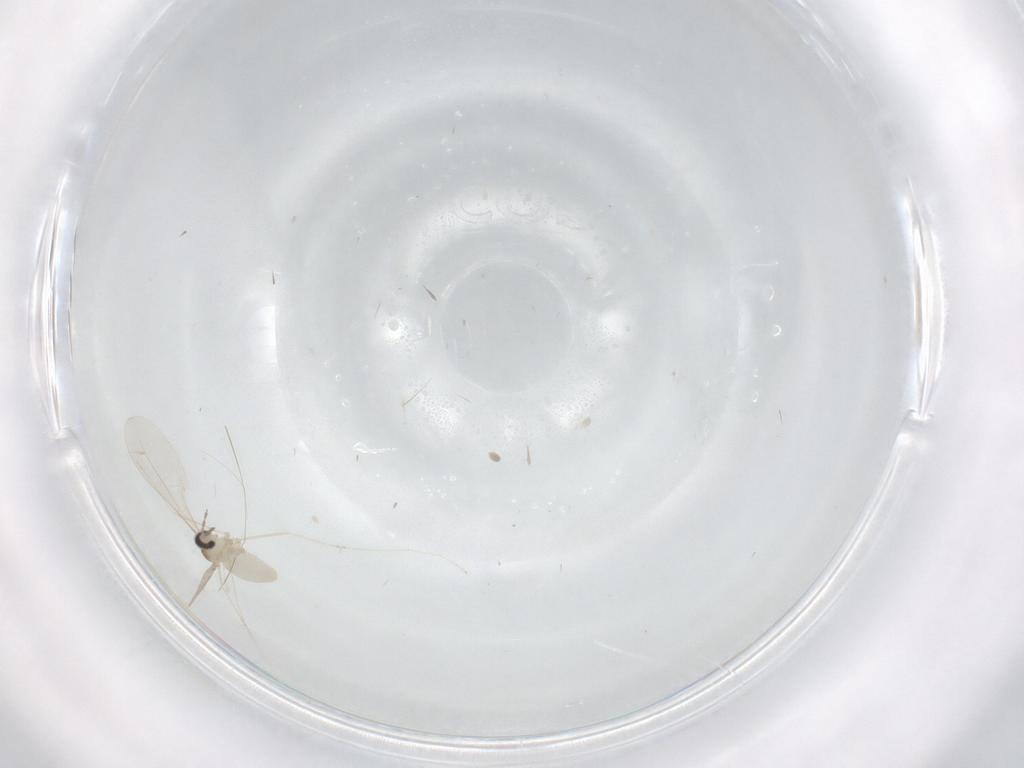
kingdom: Animalia
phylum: Arthropoda
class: Insecta
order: Diptera
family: Cecidomyiidae
